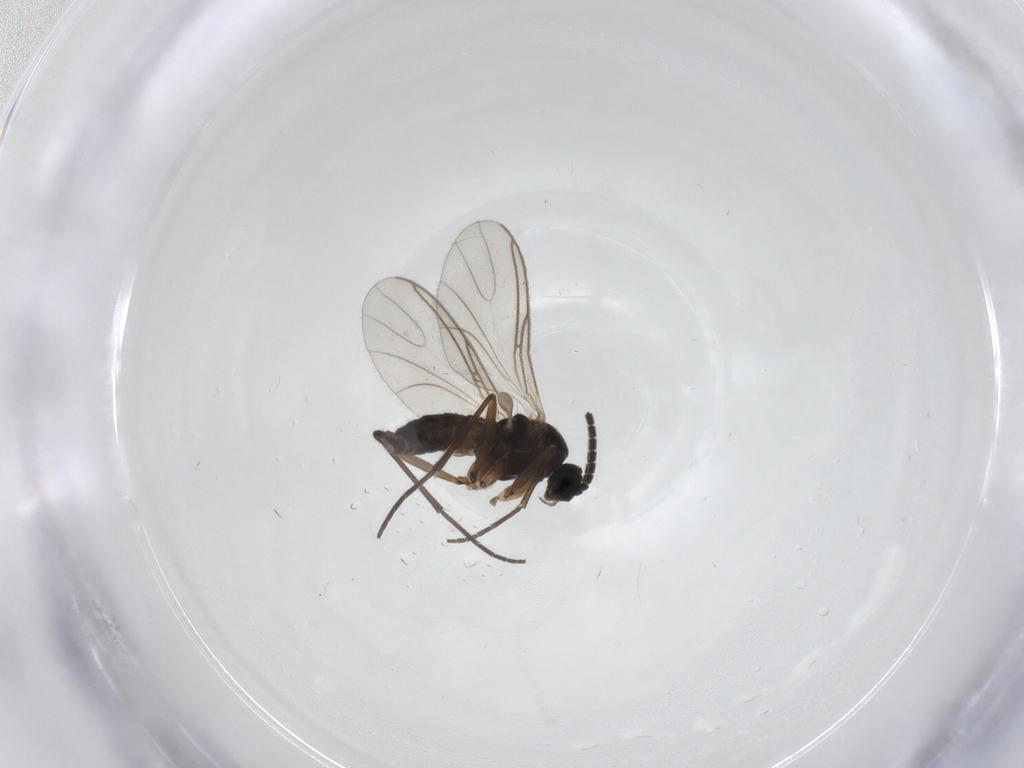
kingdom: Animalia
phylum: Arthropoda
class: Insecta
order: Diptera
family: Sciaridae
